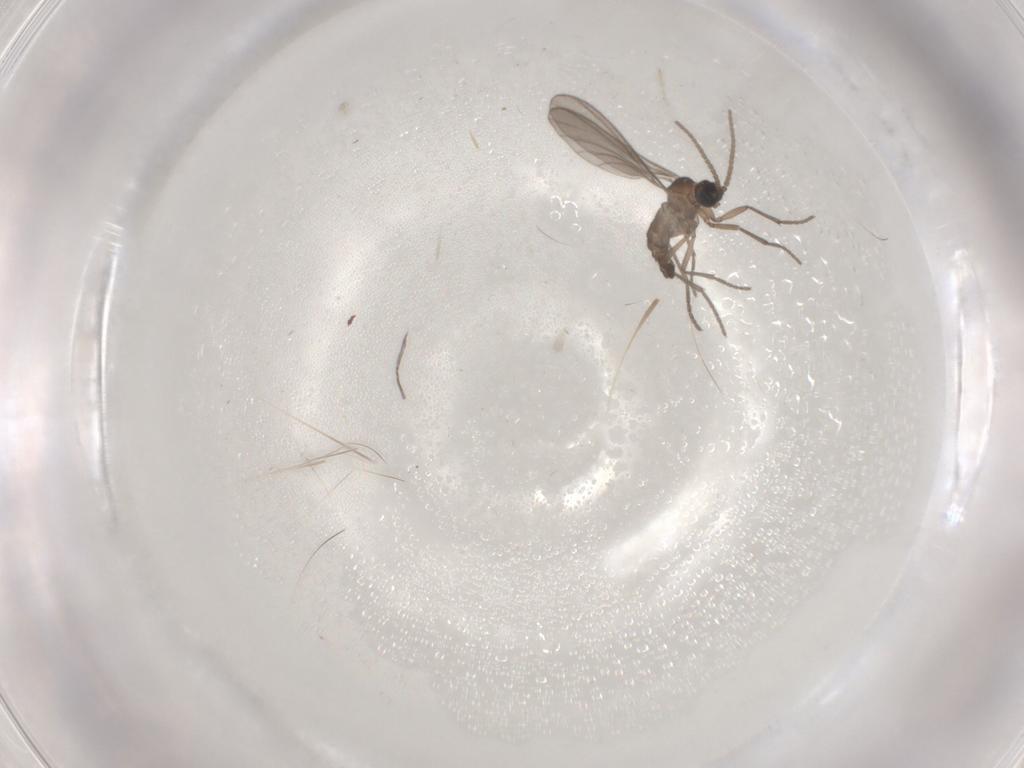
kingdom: Animalia
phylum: Arthropoda
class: Insecta
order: Diptera
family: Sciaridae
